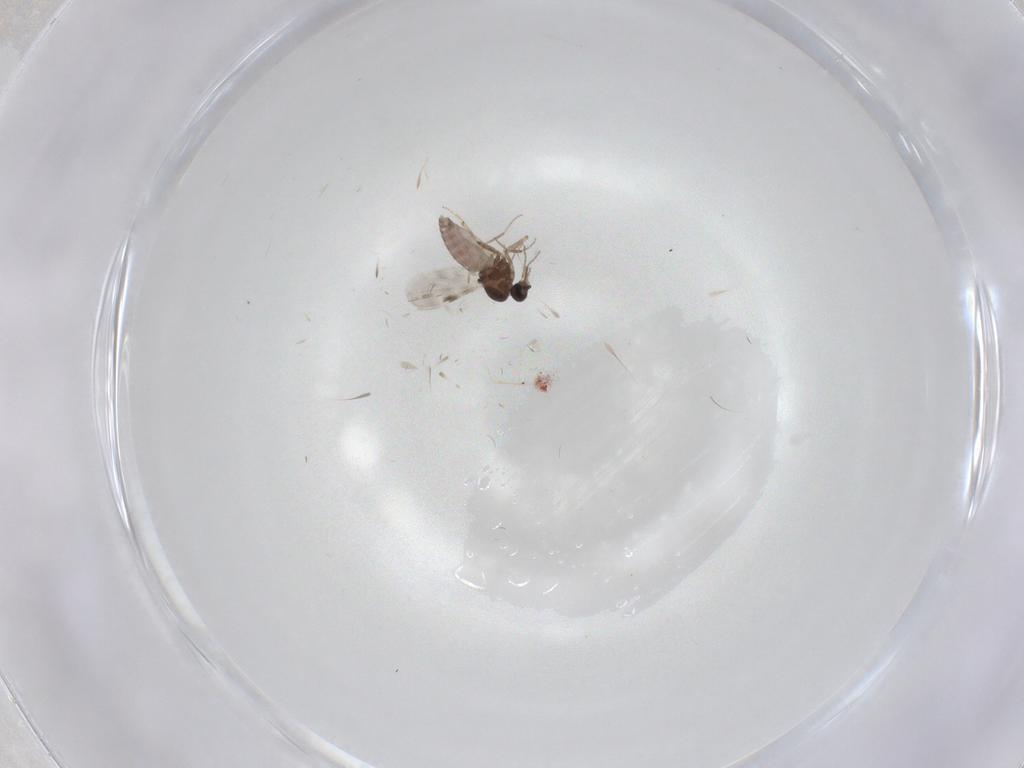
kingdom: Animalia
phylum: Arthropoda
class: Insecta
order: Diptera
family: Cecidomyiidae
